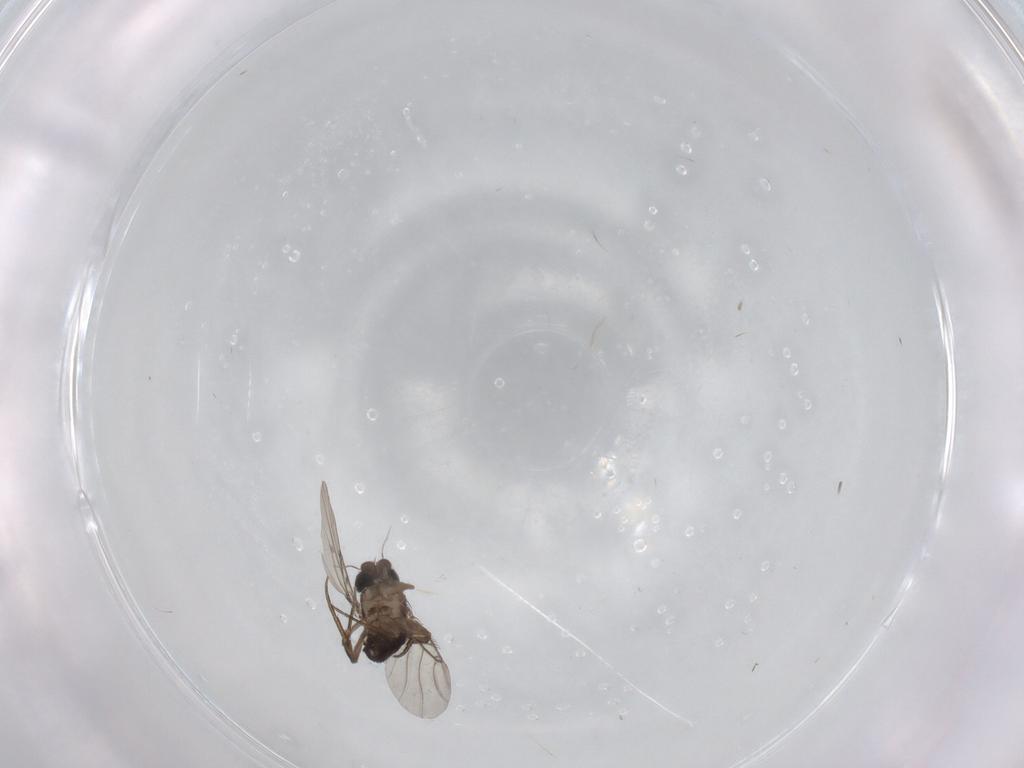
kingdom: Animalia
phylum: Arthropoda
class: Insecta
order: Diptera
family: Phoridae
